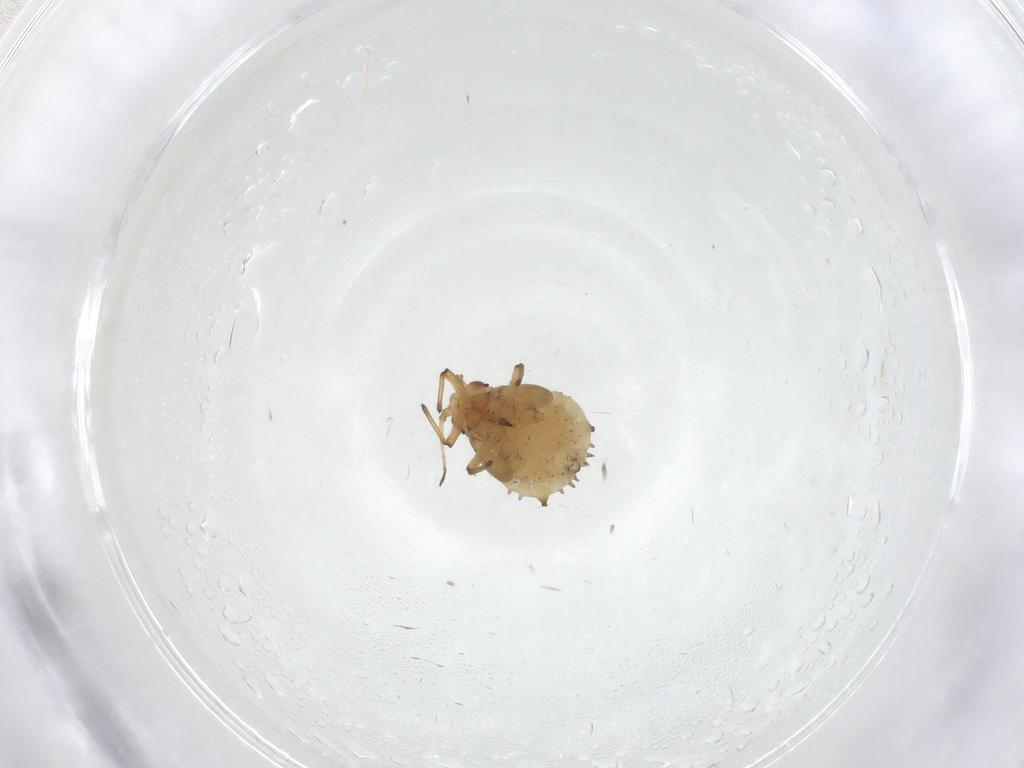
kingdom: Animalia
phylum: Arthropoda
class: Insecta
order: Hemiptera
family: Aphididae
